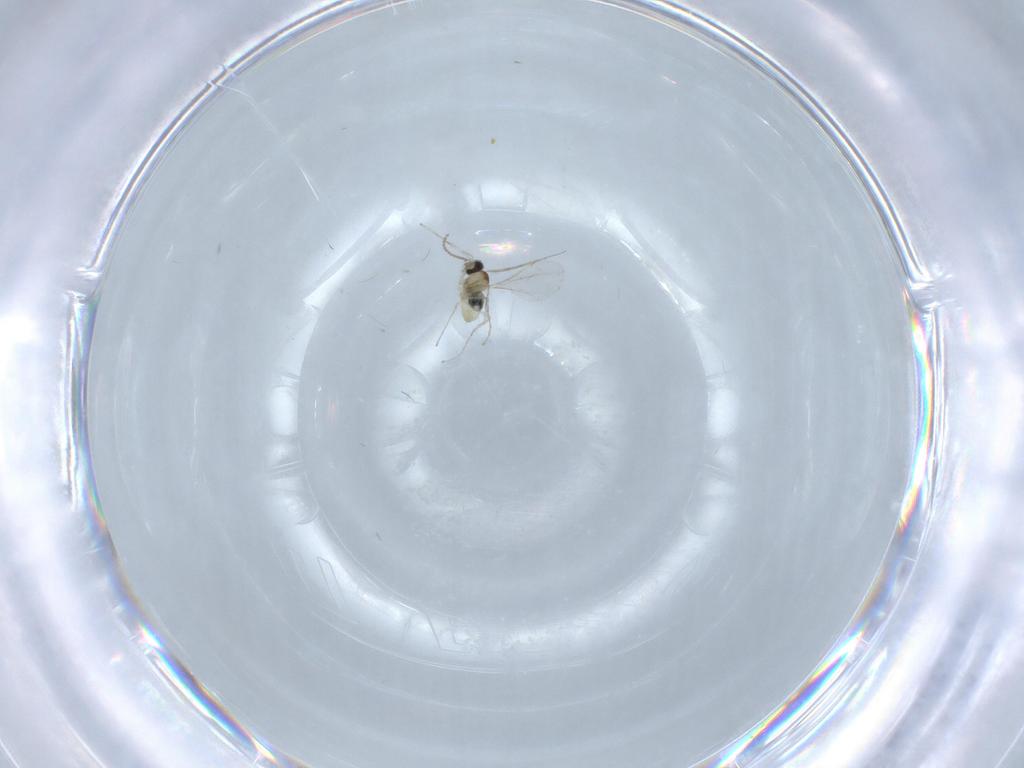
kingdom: Animalia
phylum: Arthropoda
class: Insecta
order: Diptera
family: Cecidomyiidae
